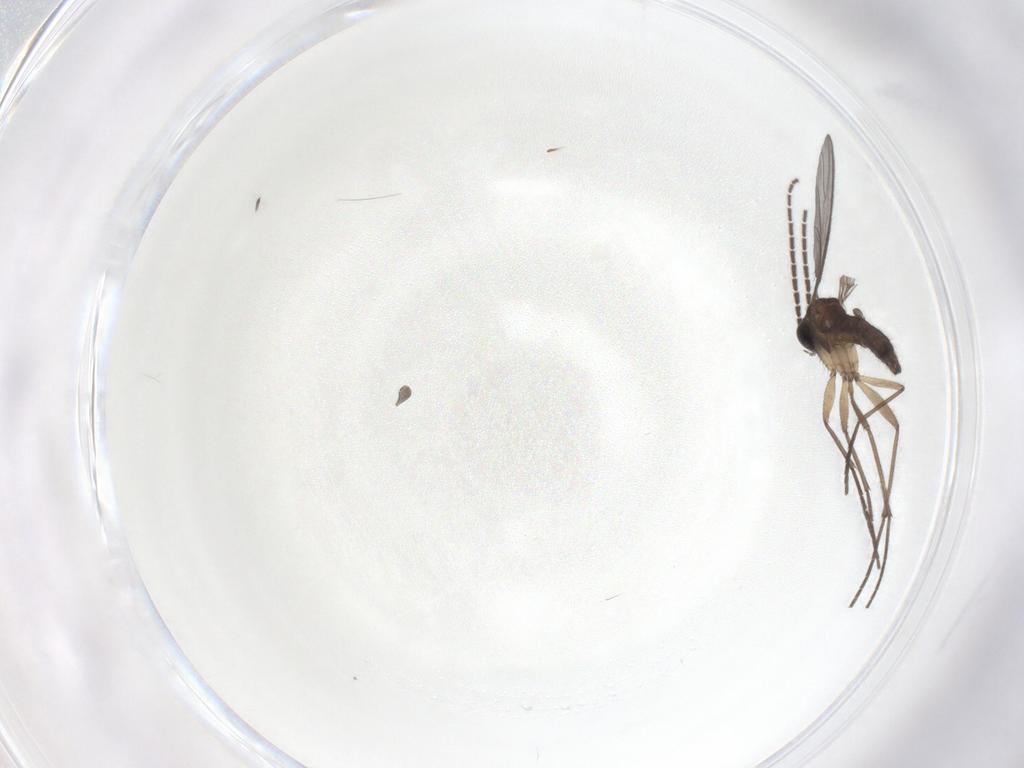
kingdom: Animalia
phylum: Arthropoda
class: Insecta
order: Diptera
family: Sciaridae
